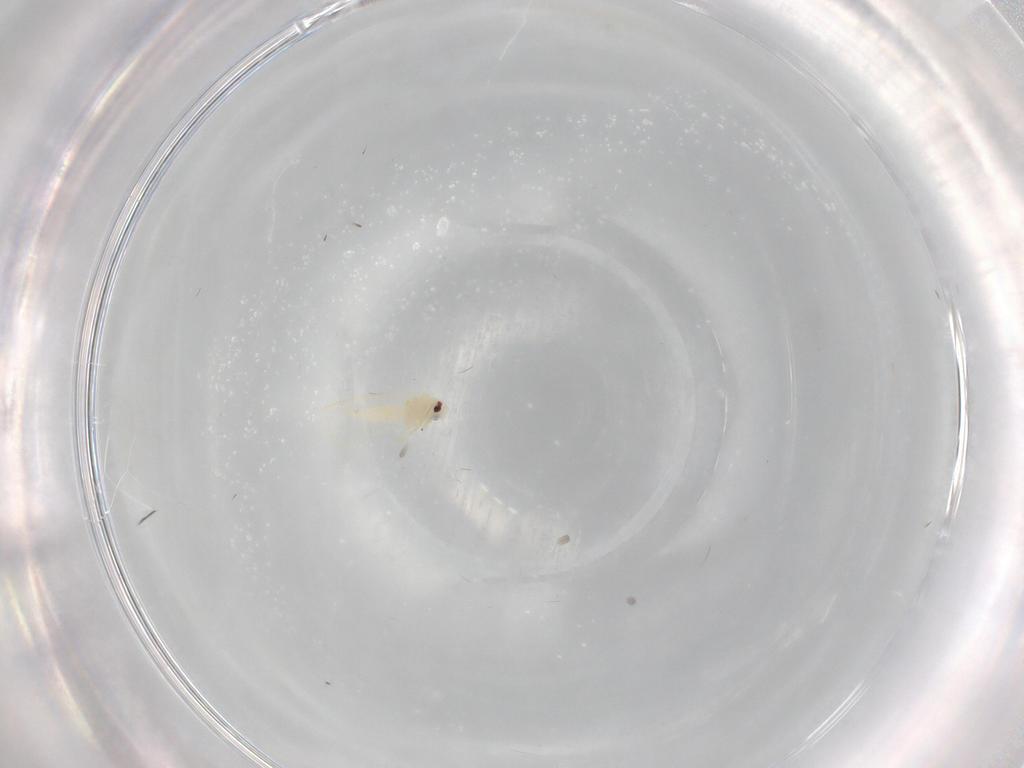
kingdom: Animalia
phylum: Arthropoda
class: Insecta
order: Hemiptera
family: Aleyrodidae
